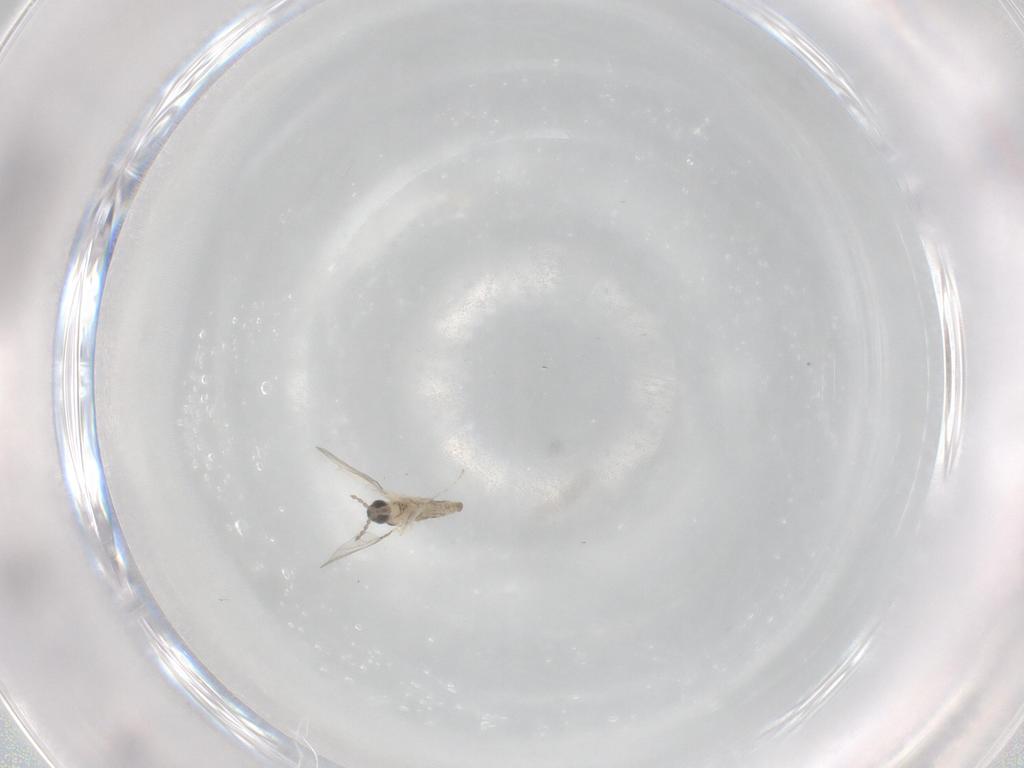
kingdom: Animalia
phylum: Arthropoda
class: Insecta
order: Diptera
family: Cecidomyiidae
